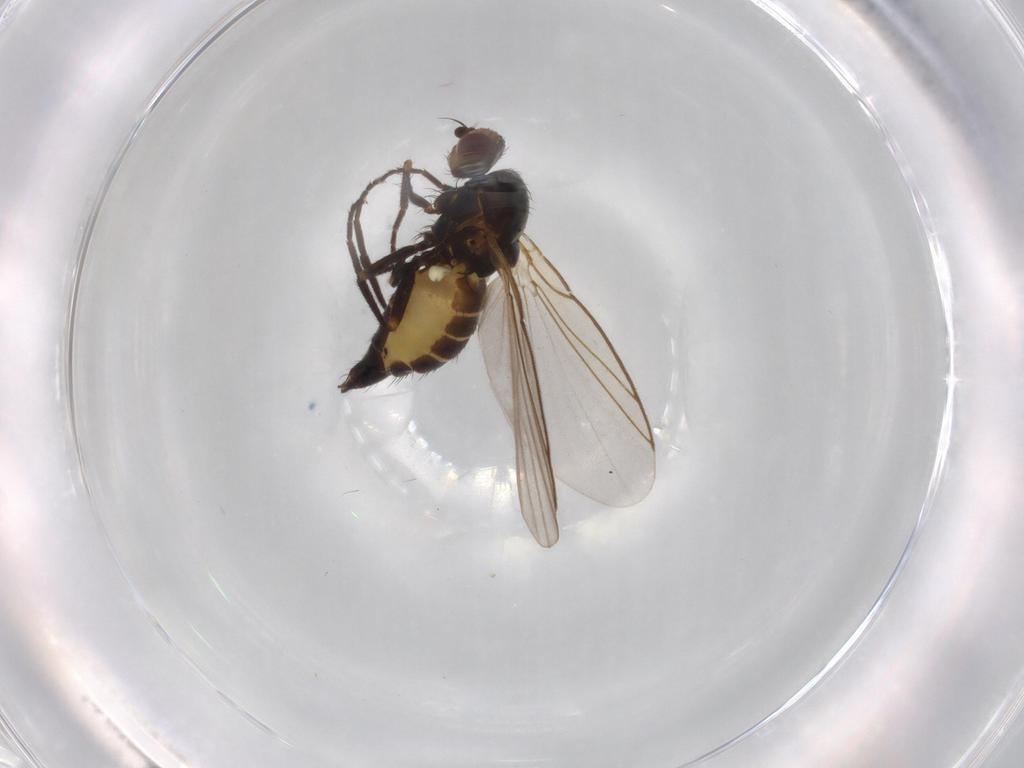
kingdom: Animalia
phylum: Arthropoda
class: Insecta
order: Diptera
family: Agromyzidae
